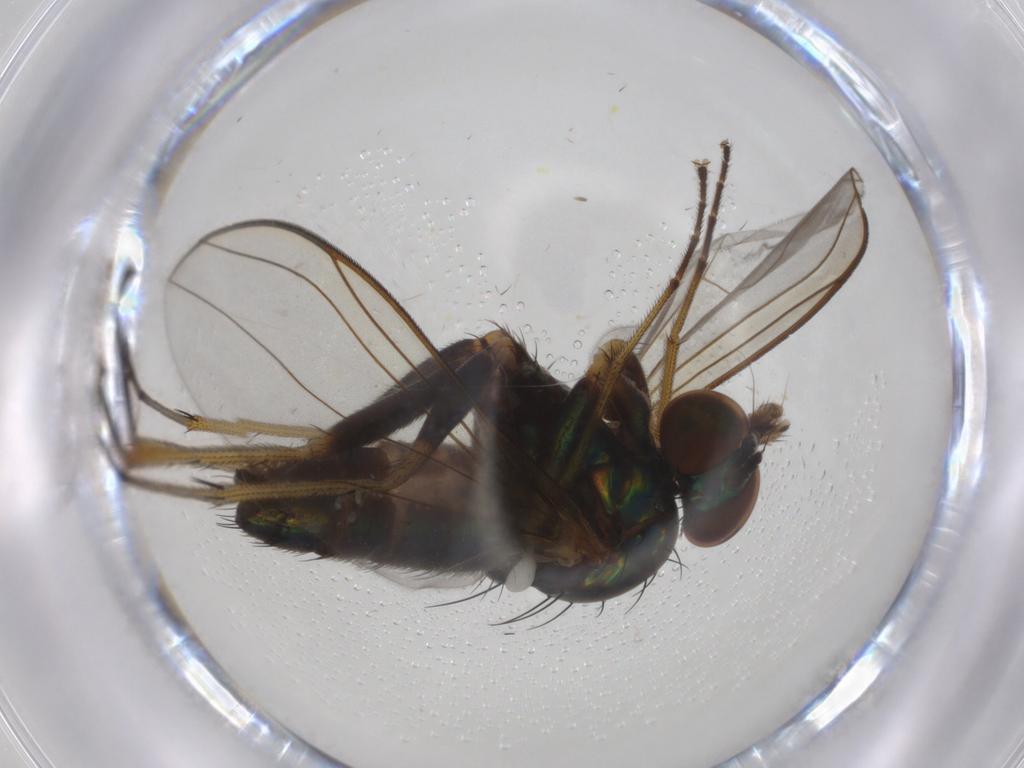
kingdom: Animalia
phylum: Arthropoda
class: Insecta
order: Diptera
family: Dolichopodidae
